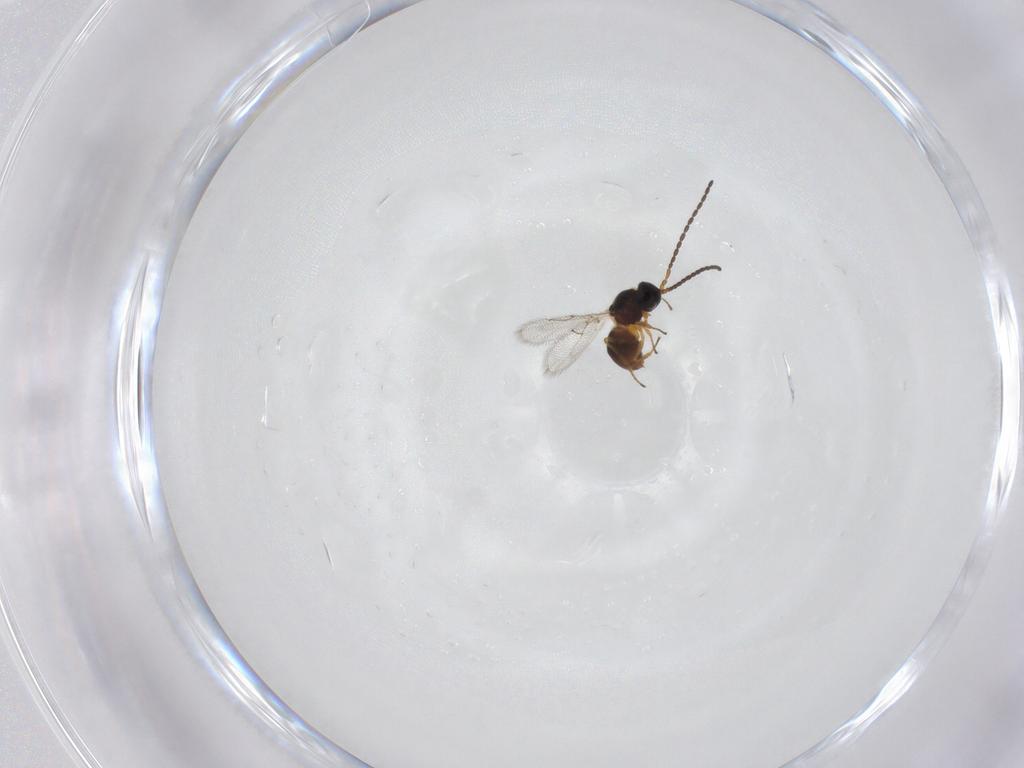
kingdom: Animalia
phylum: Arthropoda
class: Insecta
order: Hymenoptera
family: Figitidae
